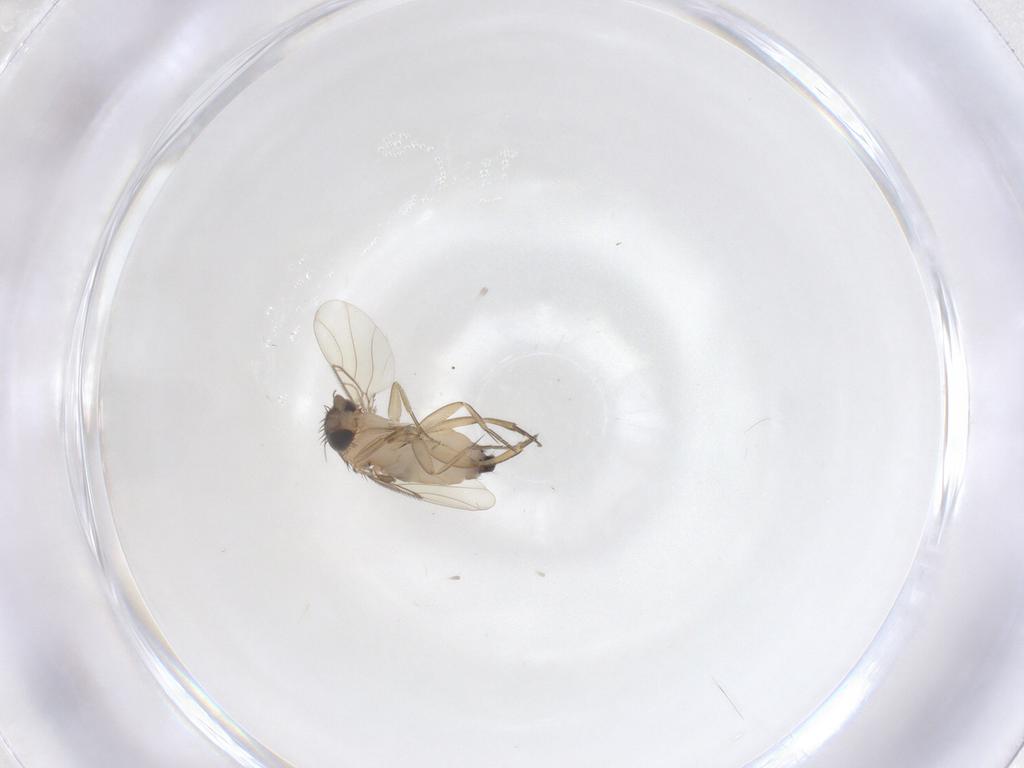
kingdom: Animalia
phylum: Arthropoda
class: Insecta
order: Diptera
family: Phoridae
